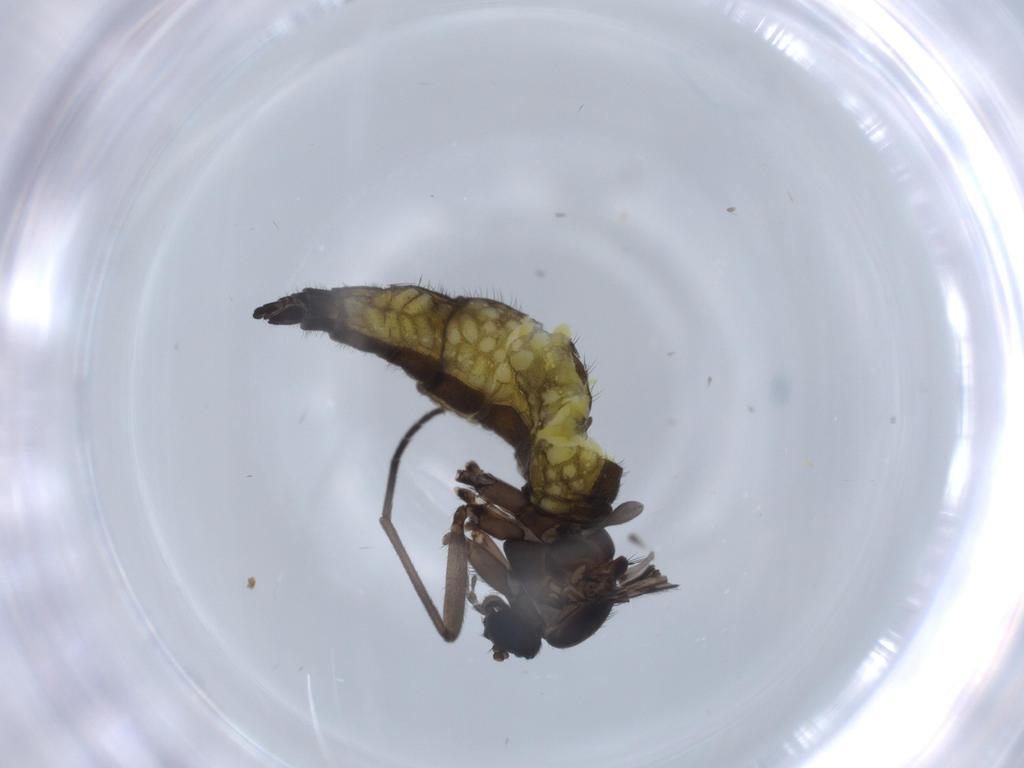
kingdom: Animalia
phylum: Arthropoda
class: Insecta
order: Diptera
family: Sciaridae
